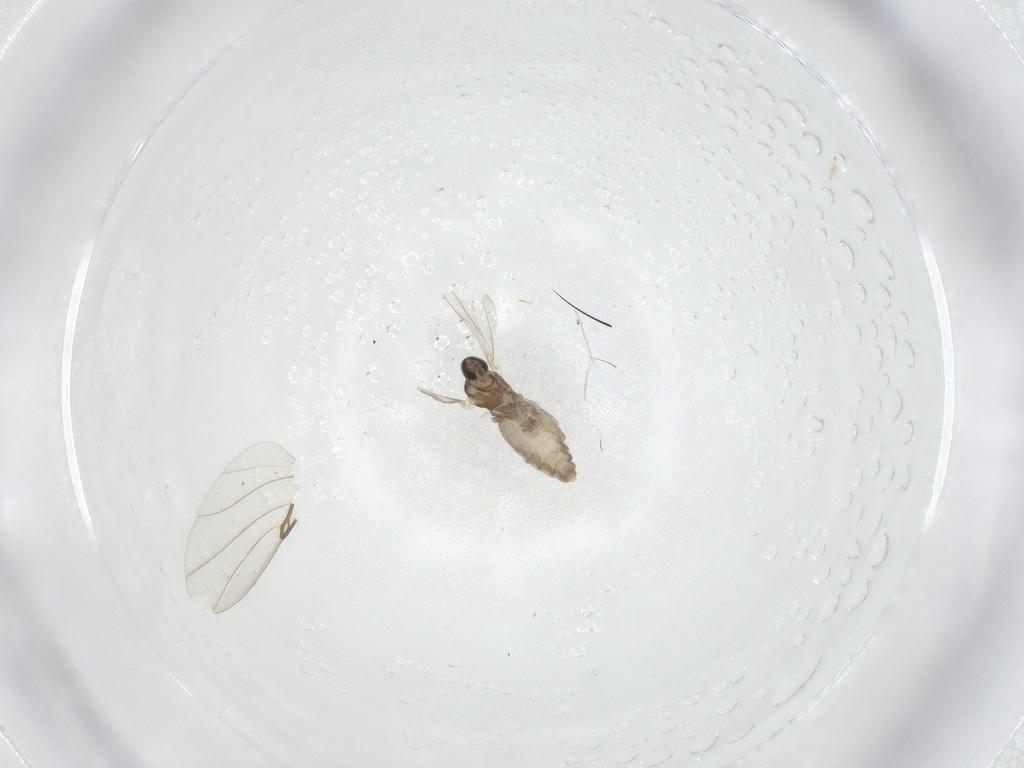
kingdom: Animalia
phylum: Arthropoda
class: Insecta
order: Diptera
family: Cecidomyiidae
